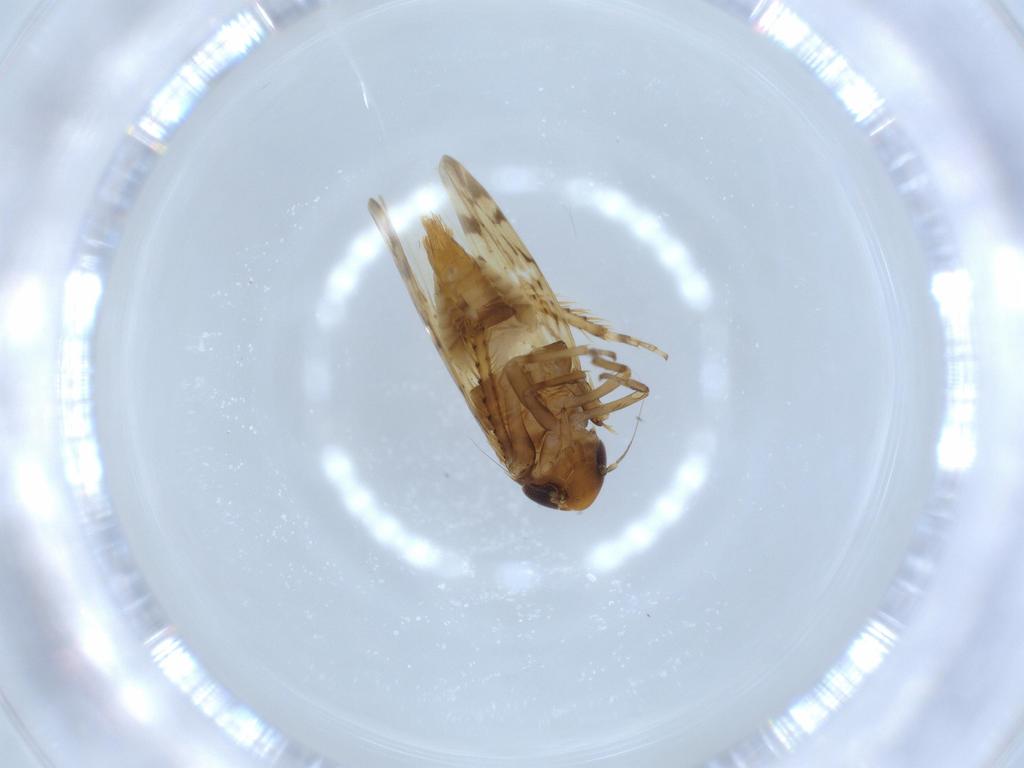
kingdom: Animalia
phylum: Arthropoda
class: Insecta
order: Hemiptera
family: Cicadellidae
